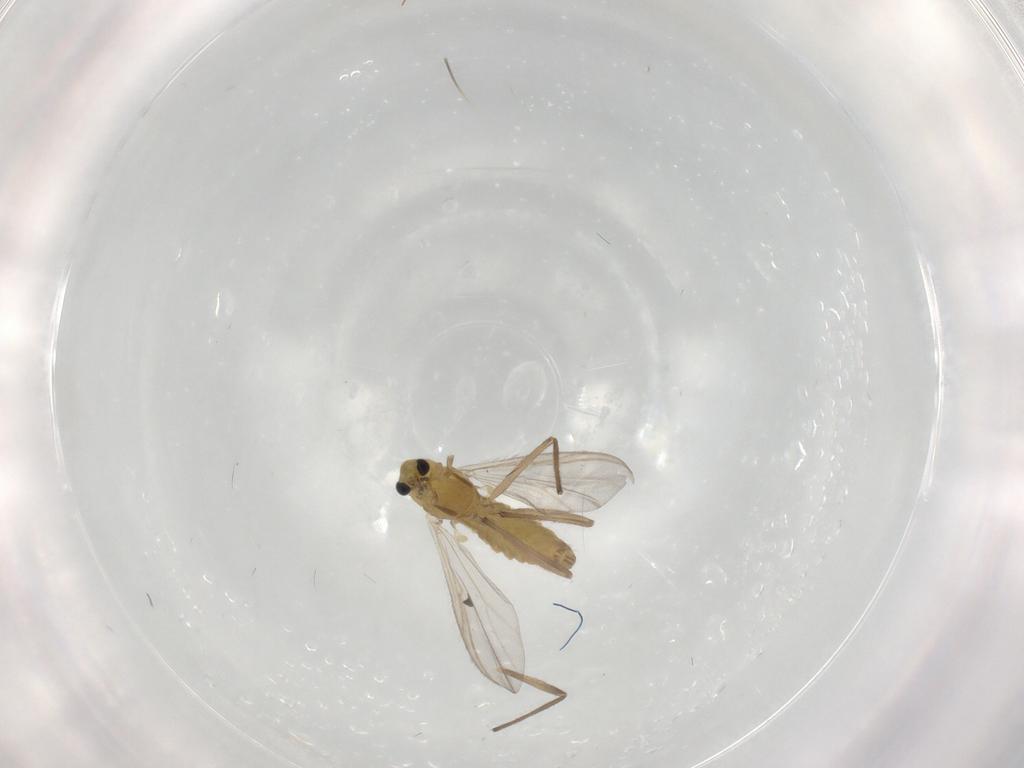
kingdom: Animalia
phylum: Arthropoda
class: Insecta
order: Diptera
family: Chironomidae
